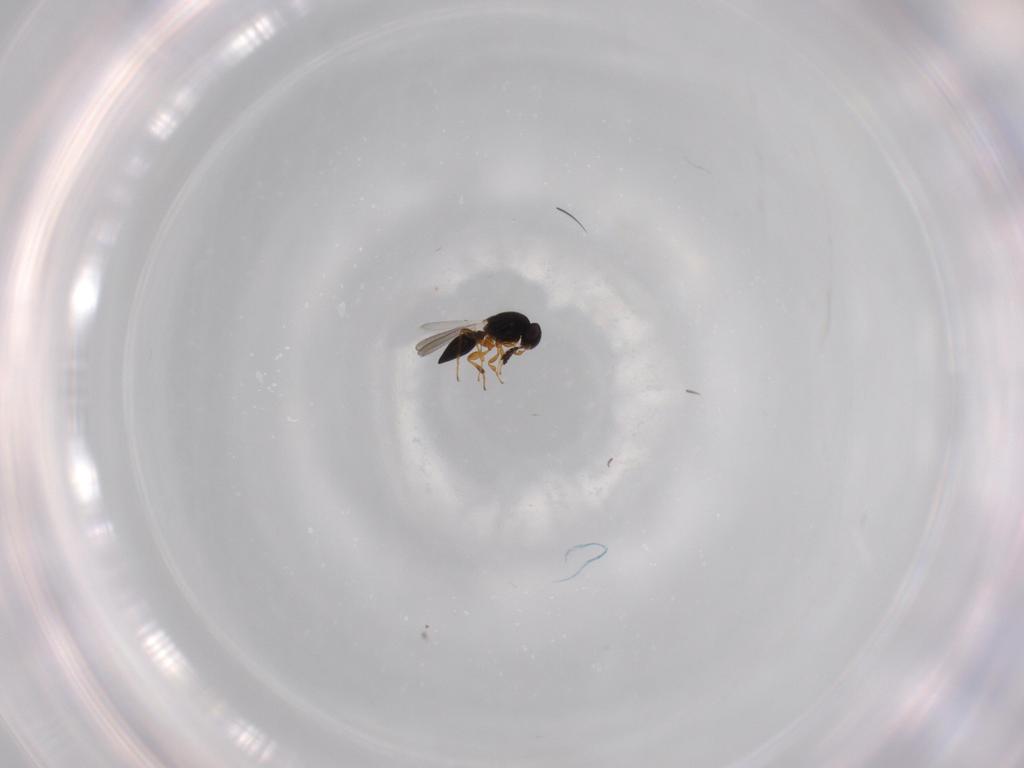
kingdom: Animalia
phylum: Arthropoda
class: Insecta
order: Hymenoptera
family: Platygastridae
